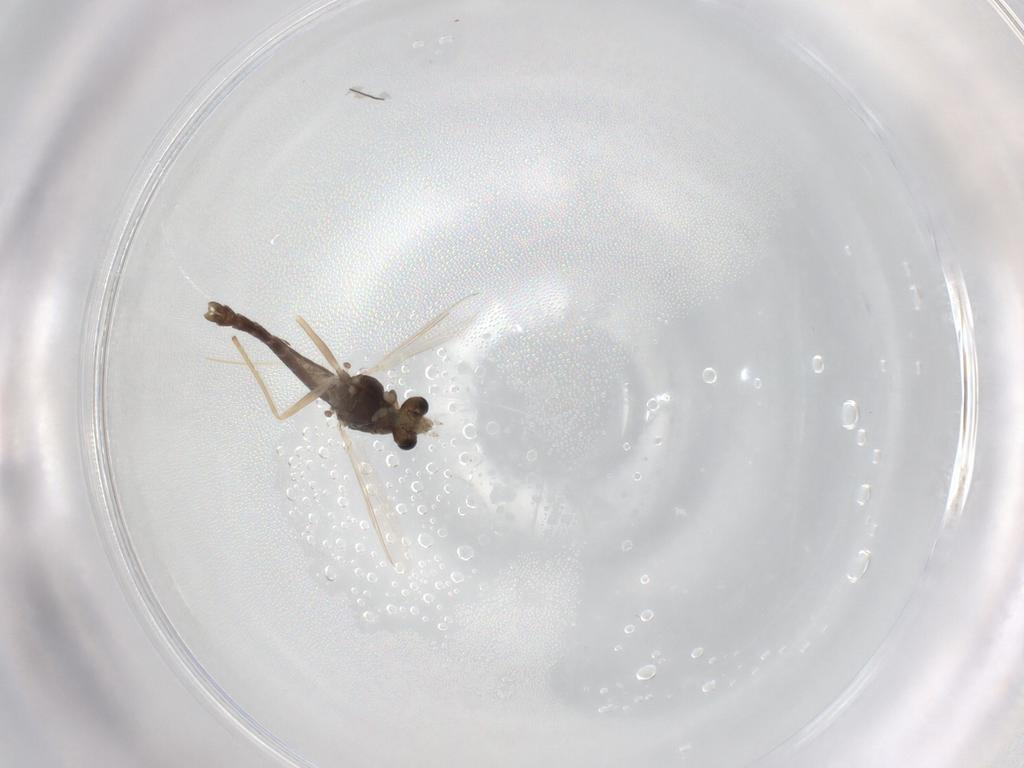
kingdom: Animalia
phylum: Arthropoda
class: Insecta
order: Diptera
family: Chironomidae
